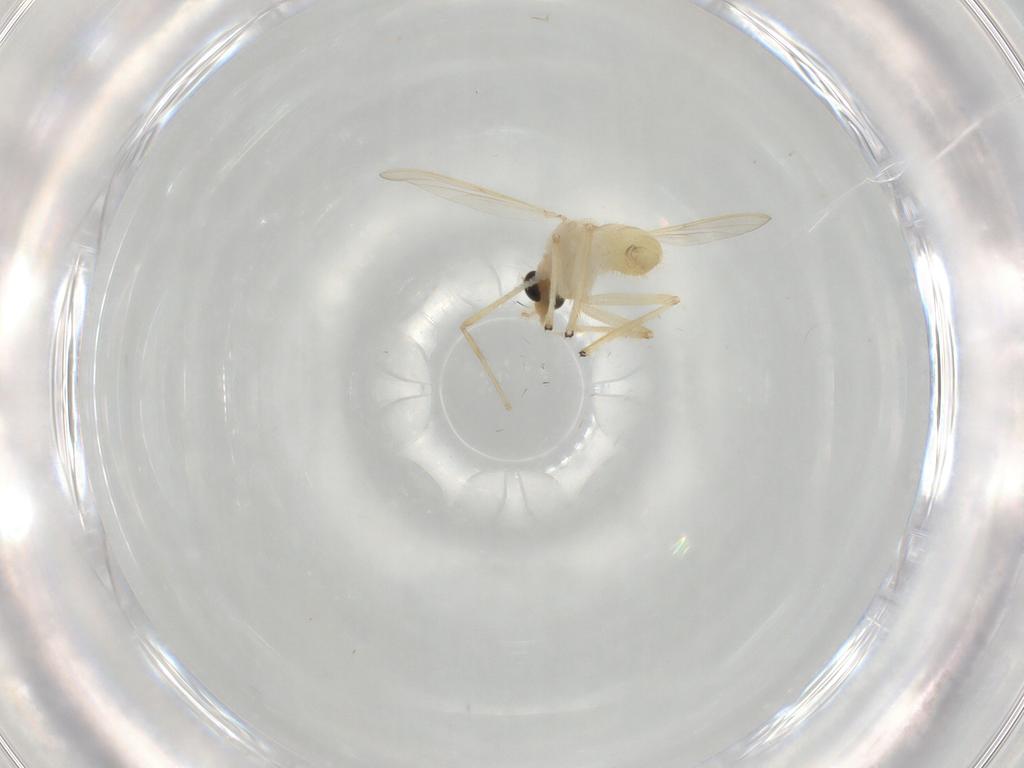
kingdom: Animalia
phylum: Arthropoda
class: Insecta
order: Diptera
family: Chironomidae
